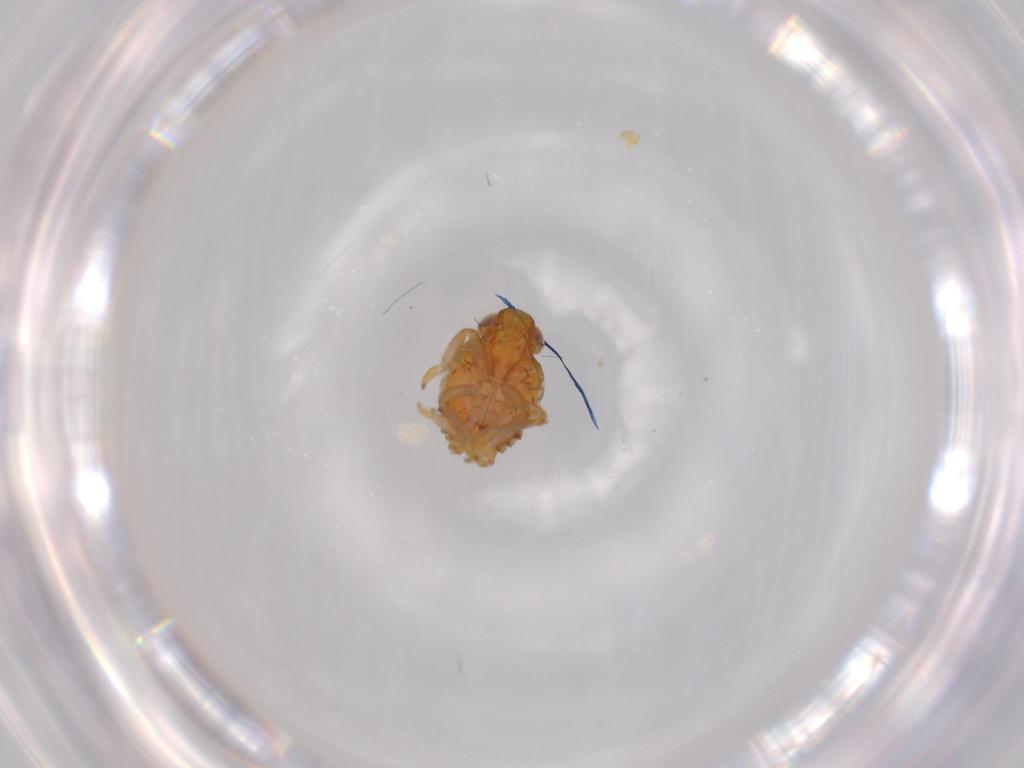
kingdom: Animalia
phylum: Arthropoda
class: Insecta
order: Hemiptera
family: Issidae
